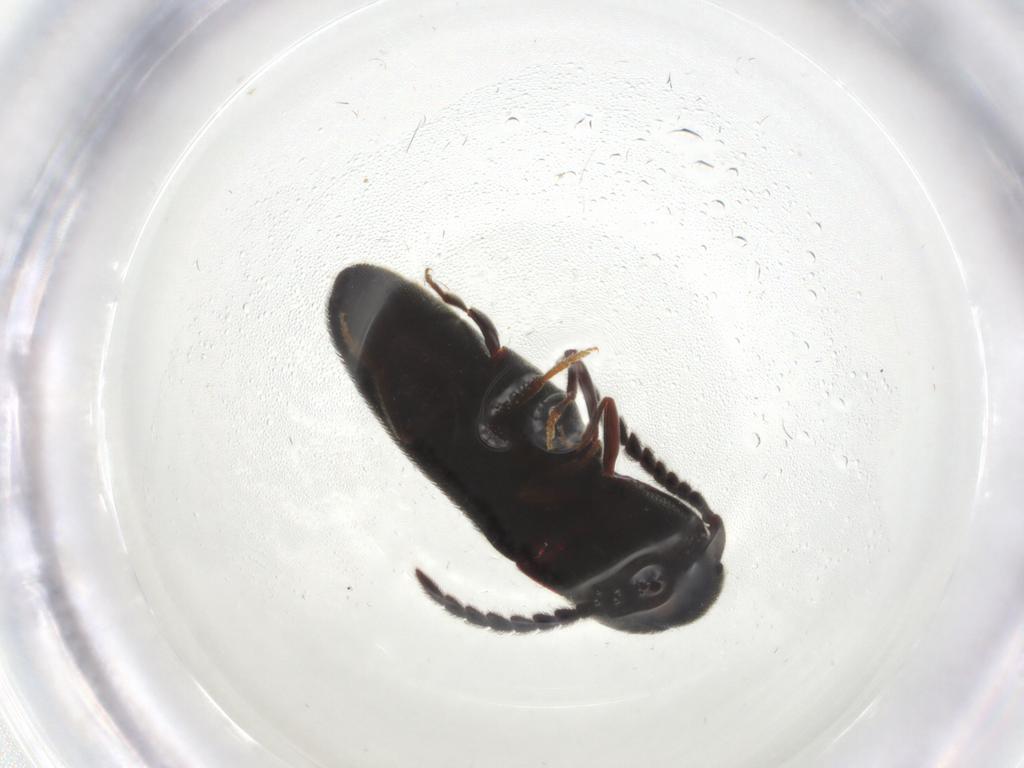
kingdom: Animalia
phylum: Arthropoda
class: Insecta
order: Coleoptera
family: Eucnemidae
